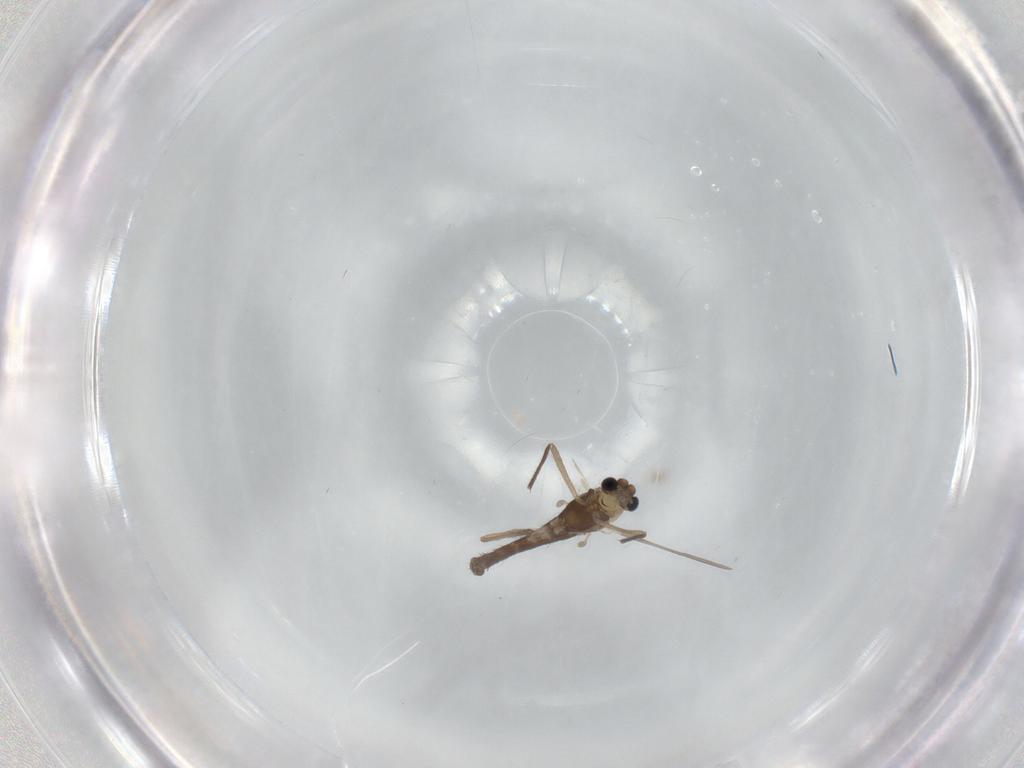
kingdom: Animalia
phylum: Arthropoda
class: Insecta
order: Diptera
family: Chironomidae
